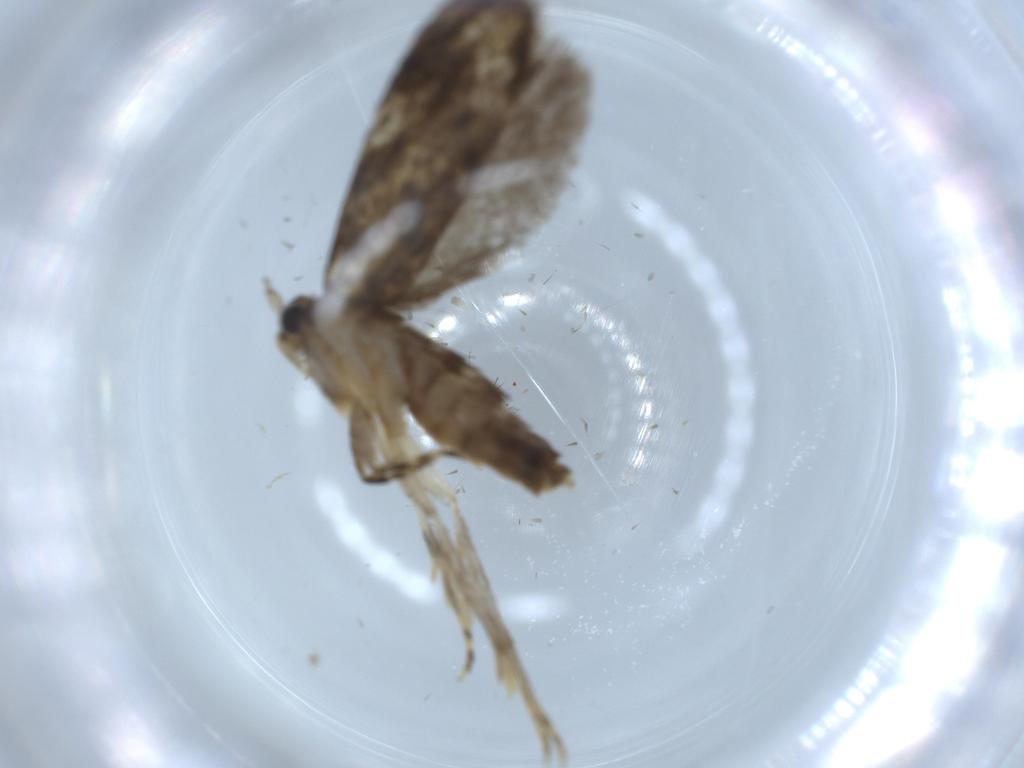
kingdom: Animalia
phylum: Arthropoda
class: Insecta
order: Lepidoptera
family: Tineidae
